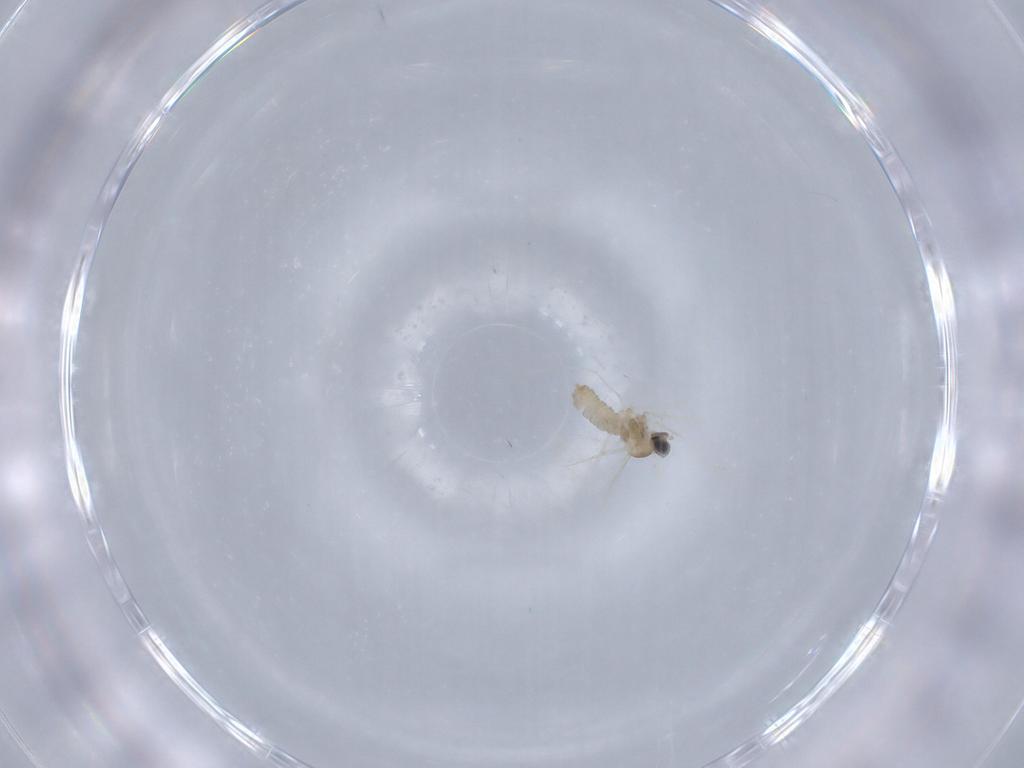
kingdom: Animalia
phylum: Arthropoda
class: Insecta
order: Diptera
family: Cecidomyiidae
